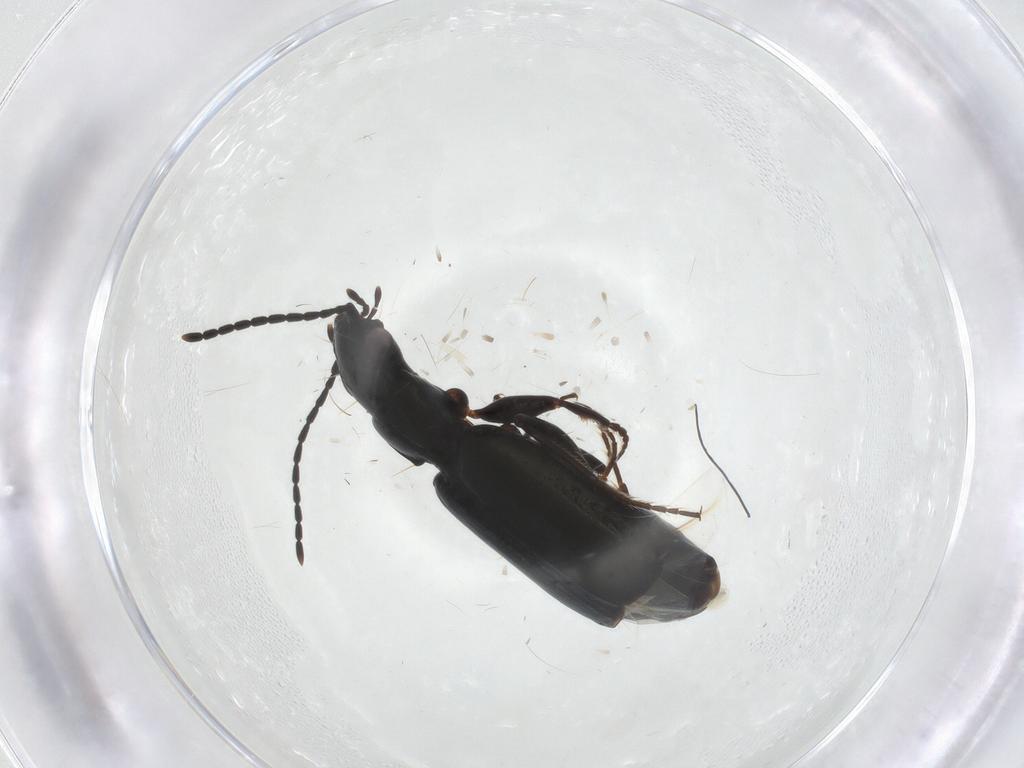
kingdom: Animalia
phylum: Arthropoda
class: Insecta
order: Coleoptera
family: Carabidae
